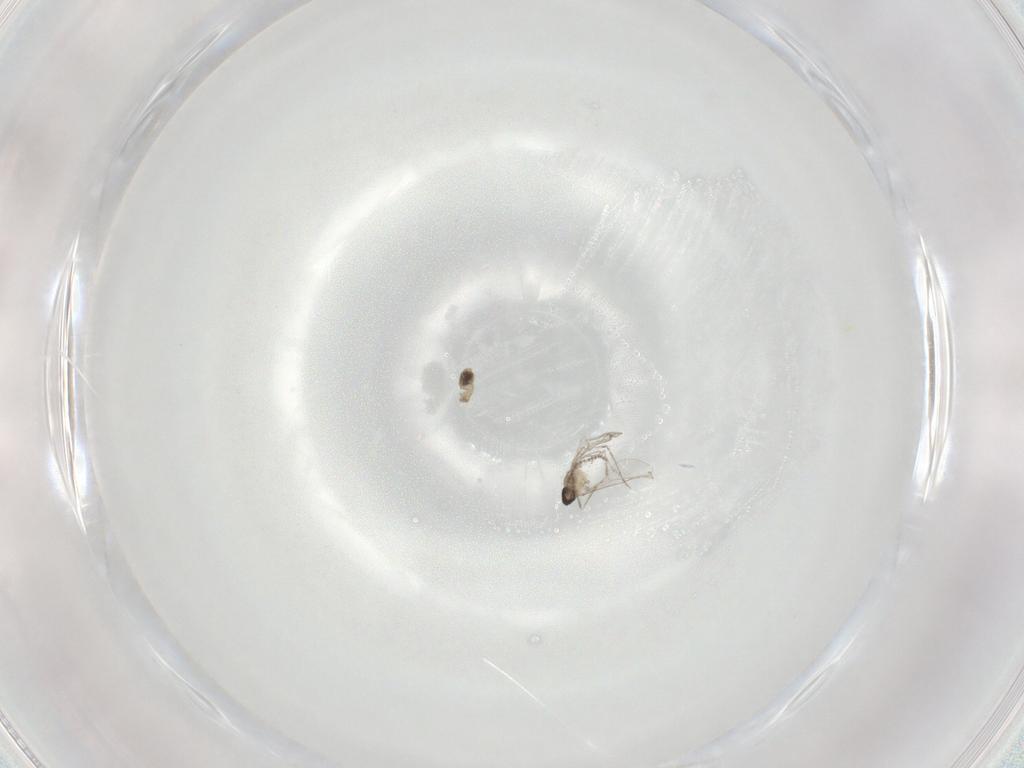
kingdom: Animalia
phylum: Arthropoda
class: Insecta
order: Diptera
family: Cecidomyiidae
